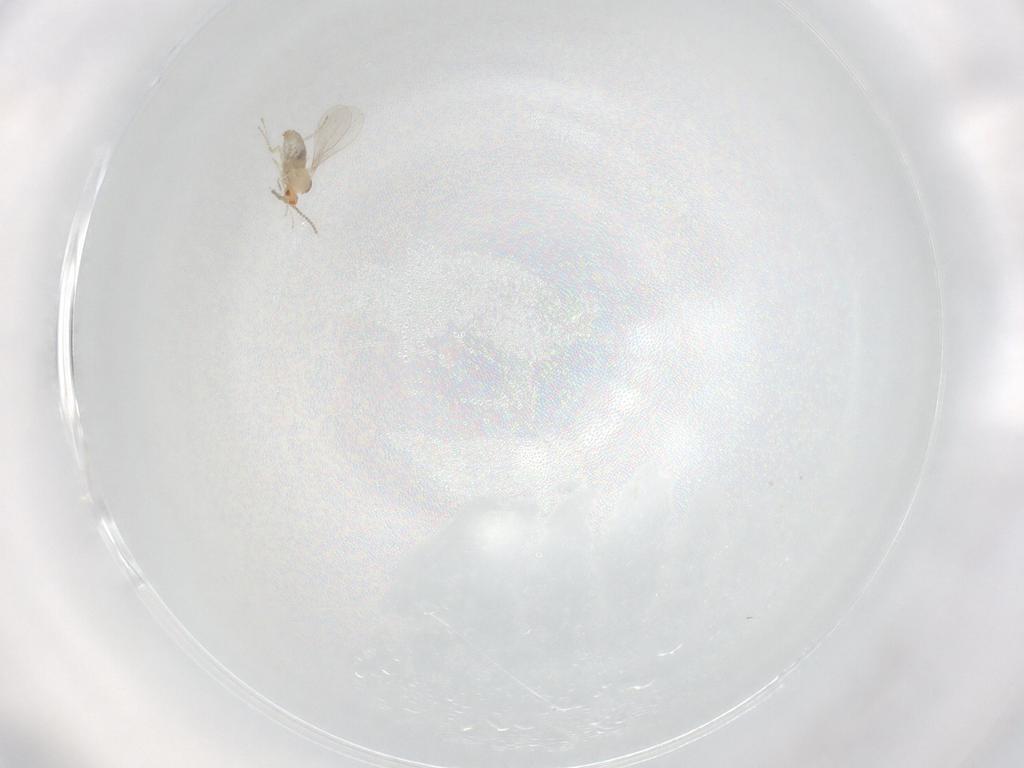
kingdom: Animalia
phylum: Arthropoda
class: Insecta
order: Diptera
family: Cecidomyiidae
